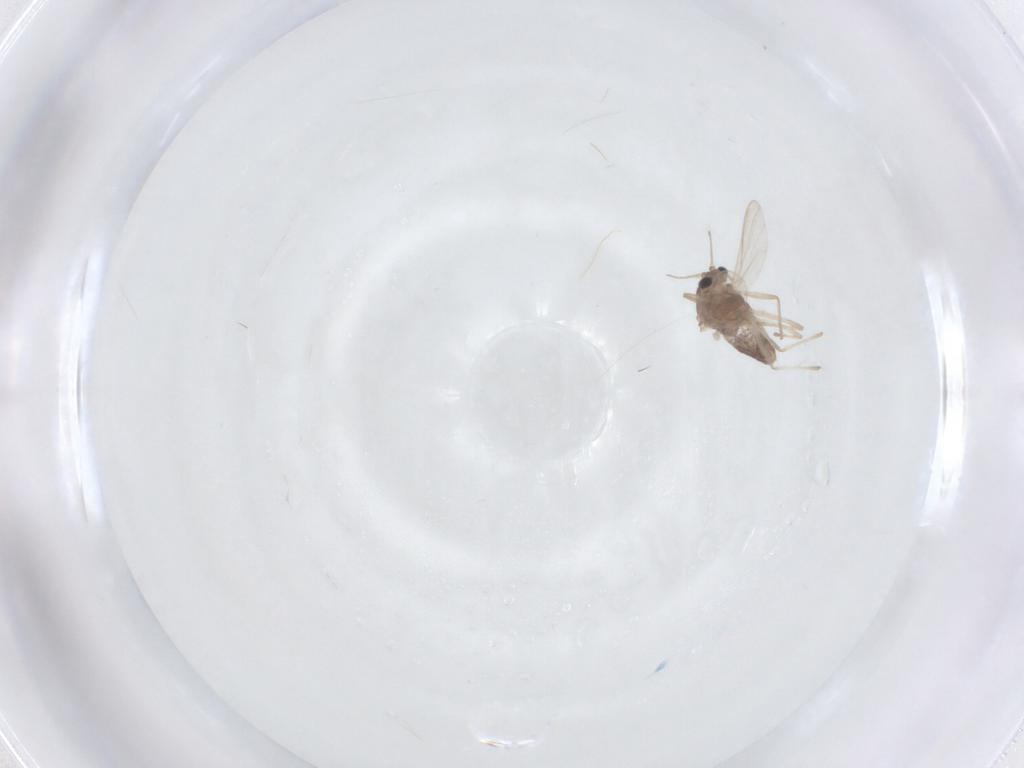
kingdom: Animalia
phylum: Arthropoda
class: Insecta
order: Diptera
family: Chironomidae
